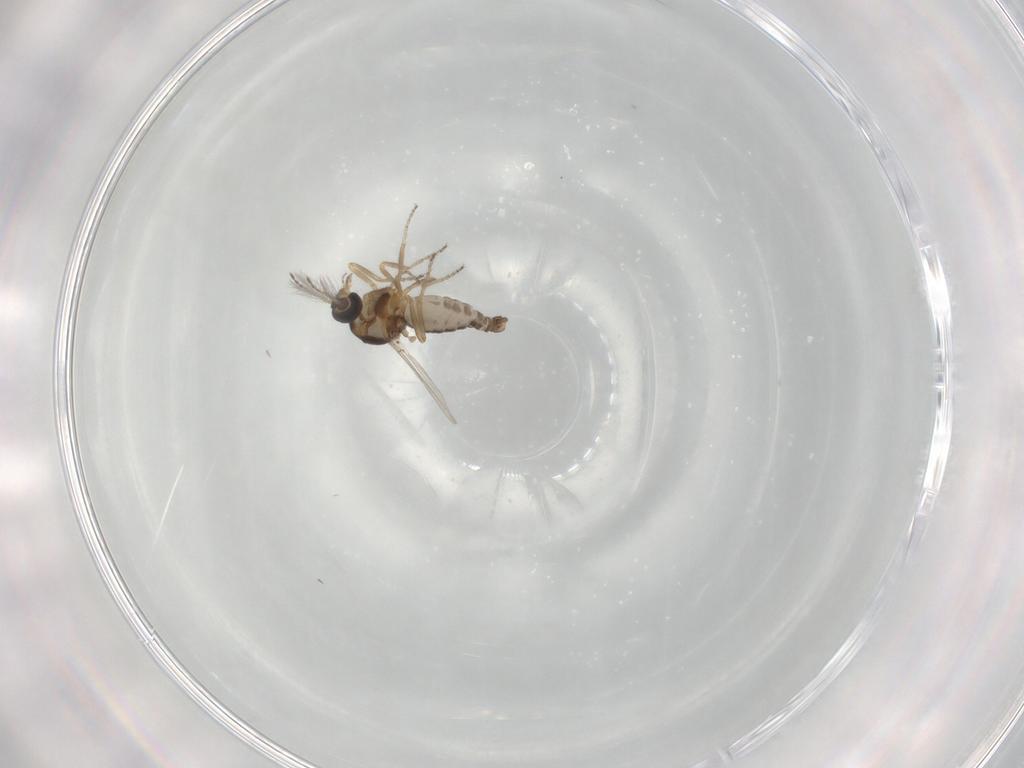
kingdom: Animalia
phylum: Arthropoda
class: Insecta
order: Diptera
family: Ceratopogonidae
